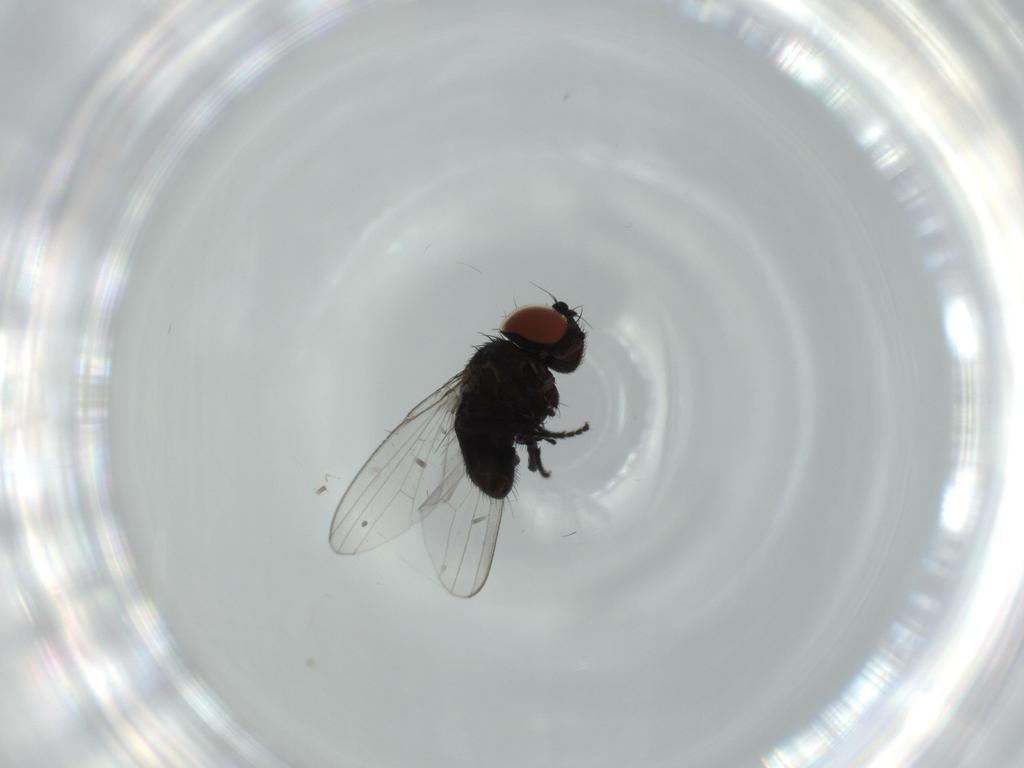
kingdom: Animalia
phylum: Arthropoda
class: Insecta
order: Diptera
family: Milichiidae
